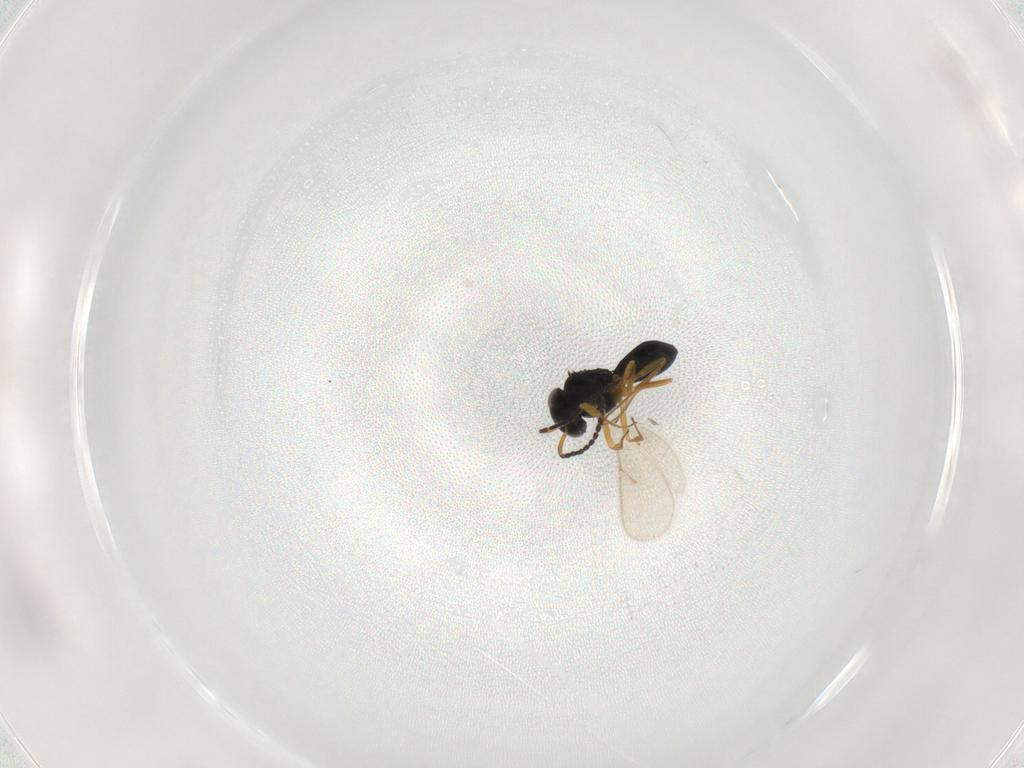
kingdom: Animalia
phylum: Arthropoda
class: Insecta
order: Hymenoptera
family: Scelionidae
